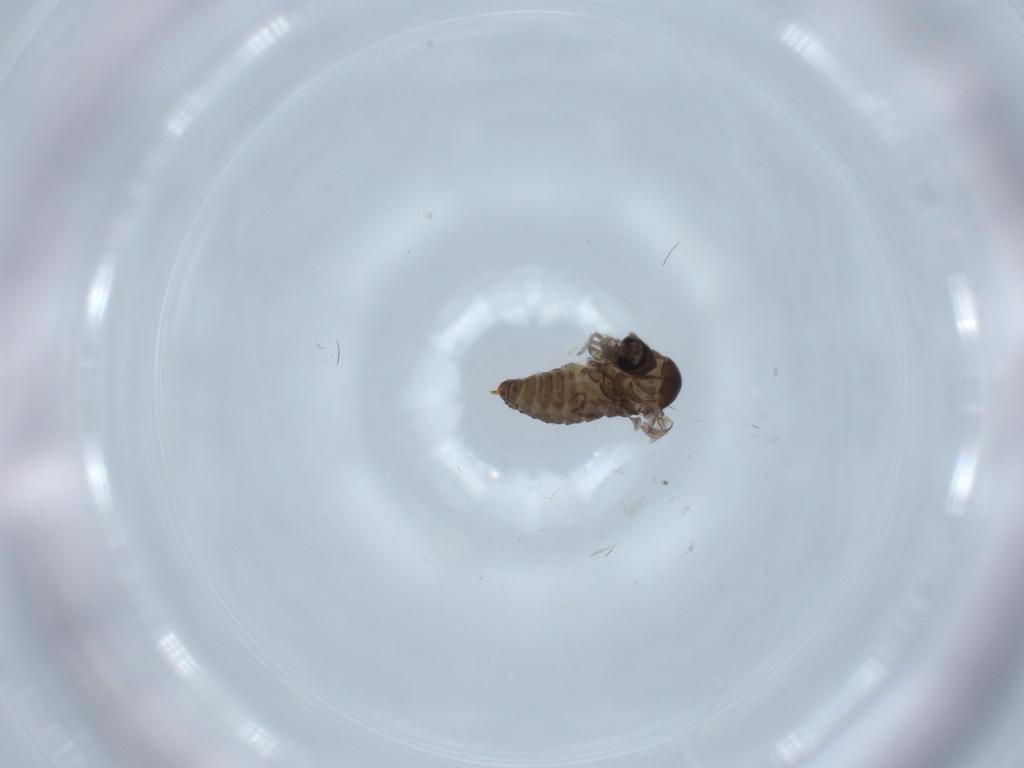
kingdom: Animalia
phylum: Arthropoda
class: Insecta
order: Diptera
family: Psychodidae
